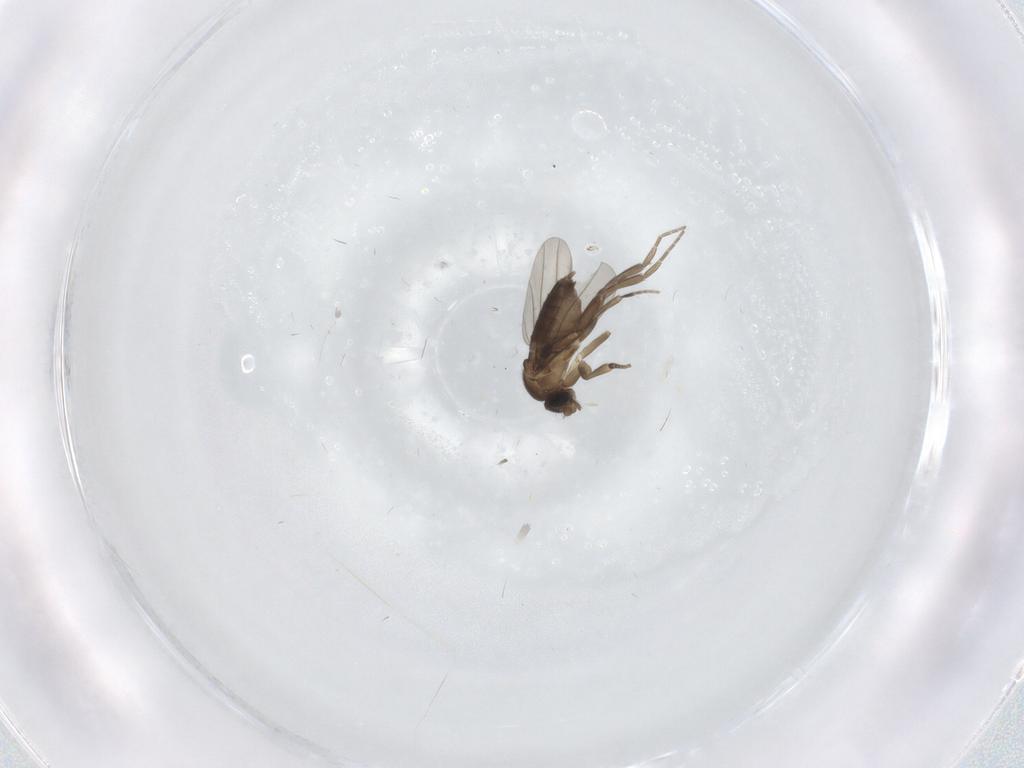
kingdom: Animalia
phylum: Arthropoda
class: Insecta
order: Diptera
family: Phoridae
